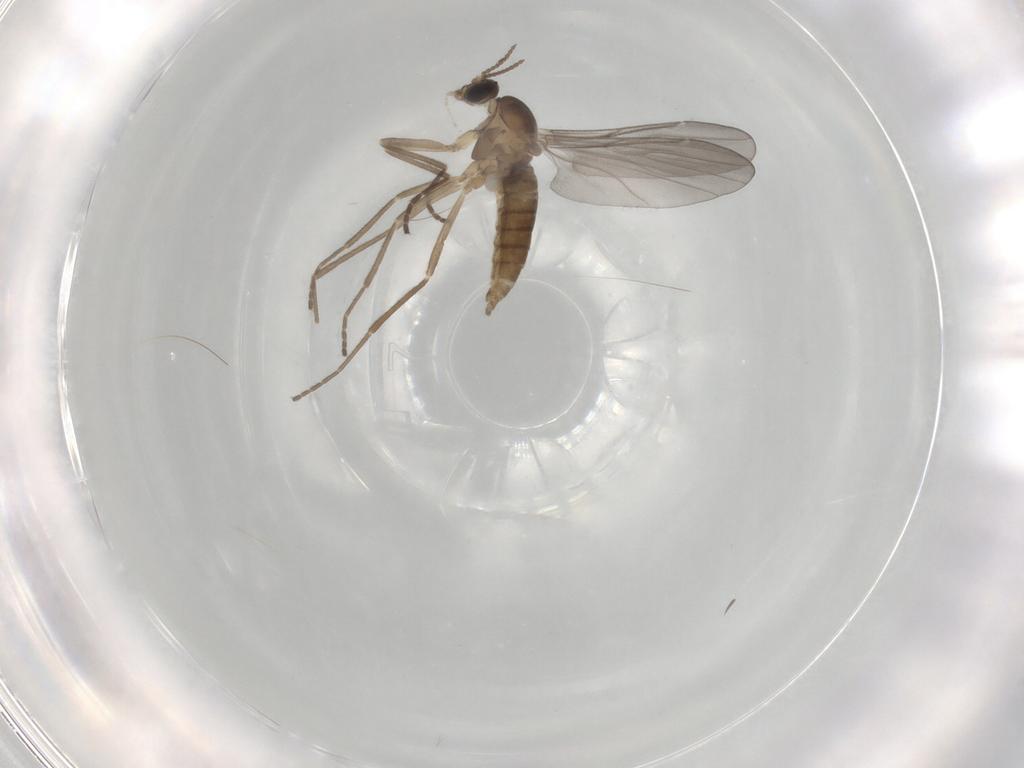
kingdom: Animalia
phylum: Arthropoda
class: Insecta
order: Diptera
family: Cecidomyiidae
